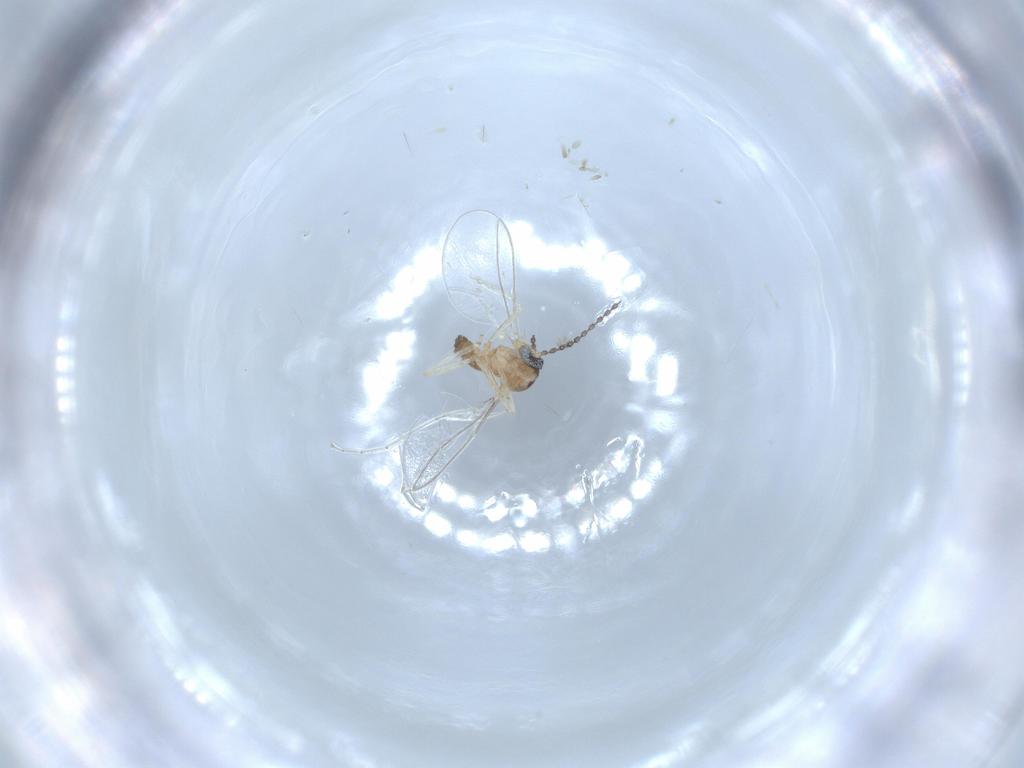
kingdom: Animalia
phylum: Arthropoda
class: Insecta
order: Diptera
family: Cecidomyiidae
